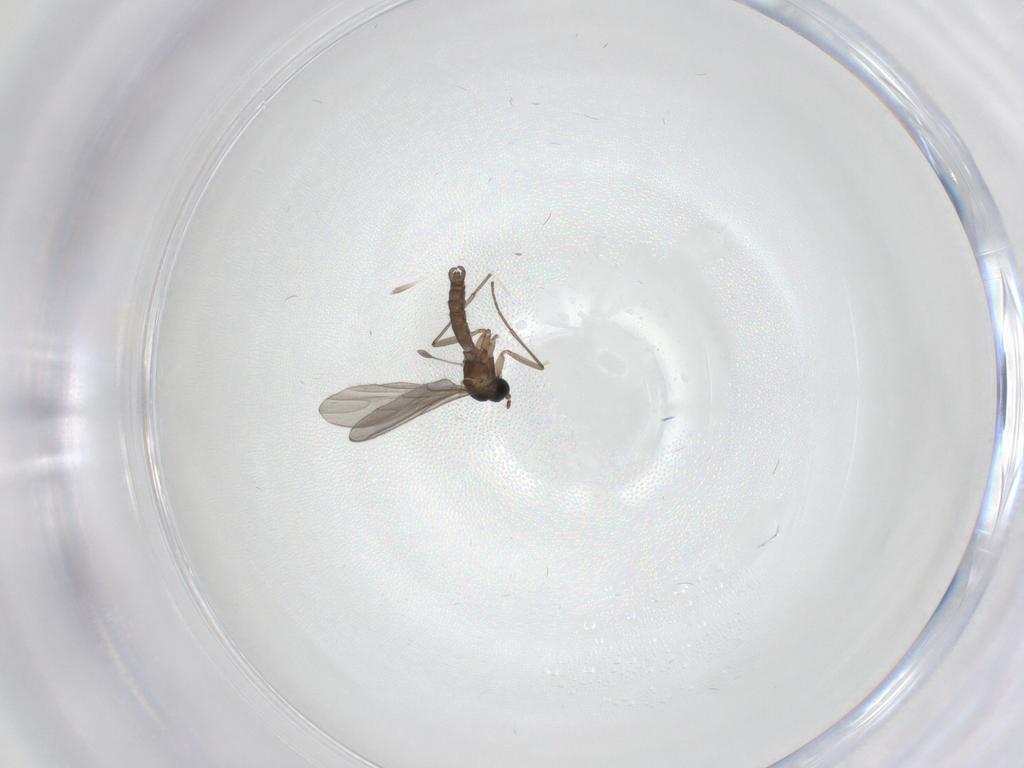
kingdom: Animalia
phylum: Arthropoda
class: Insecta
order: Diptera
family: Sciaridae
